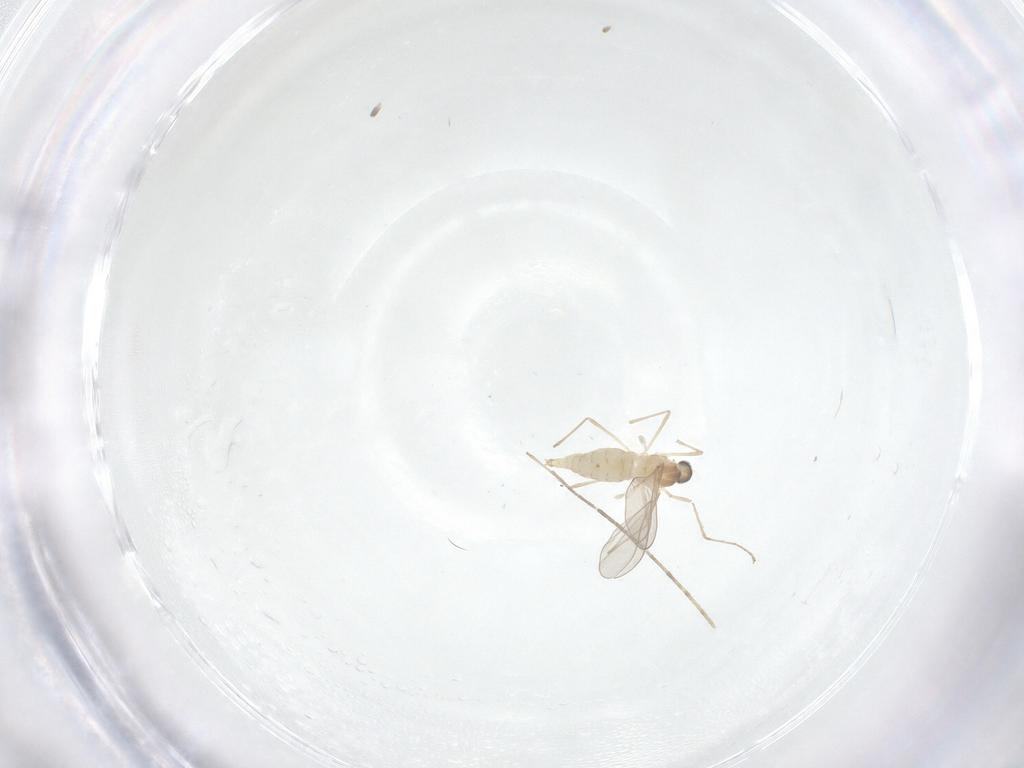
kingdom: Animalia
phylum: Arthropoda
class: Insecta
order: Diptera
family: Cecidomyiidae
